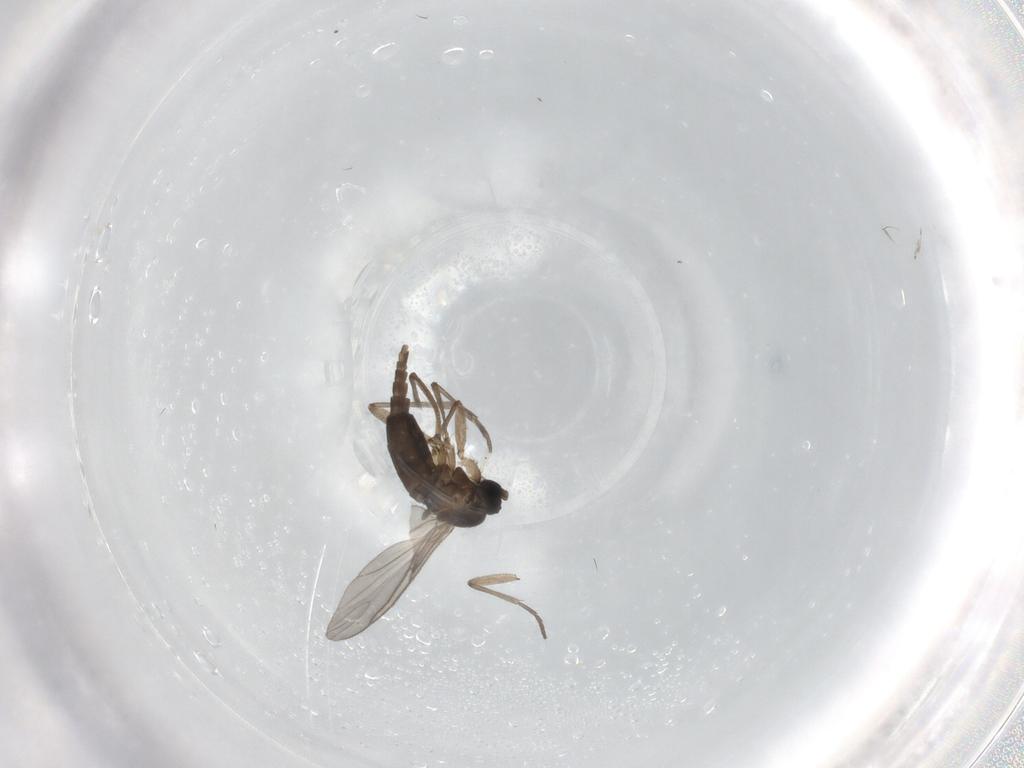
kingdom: Animalia
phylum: Arthropoda
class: Insecta
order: Diptera
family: Sciaridae
